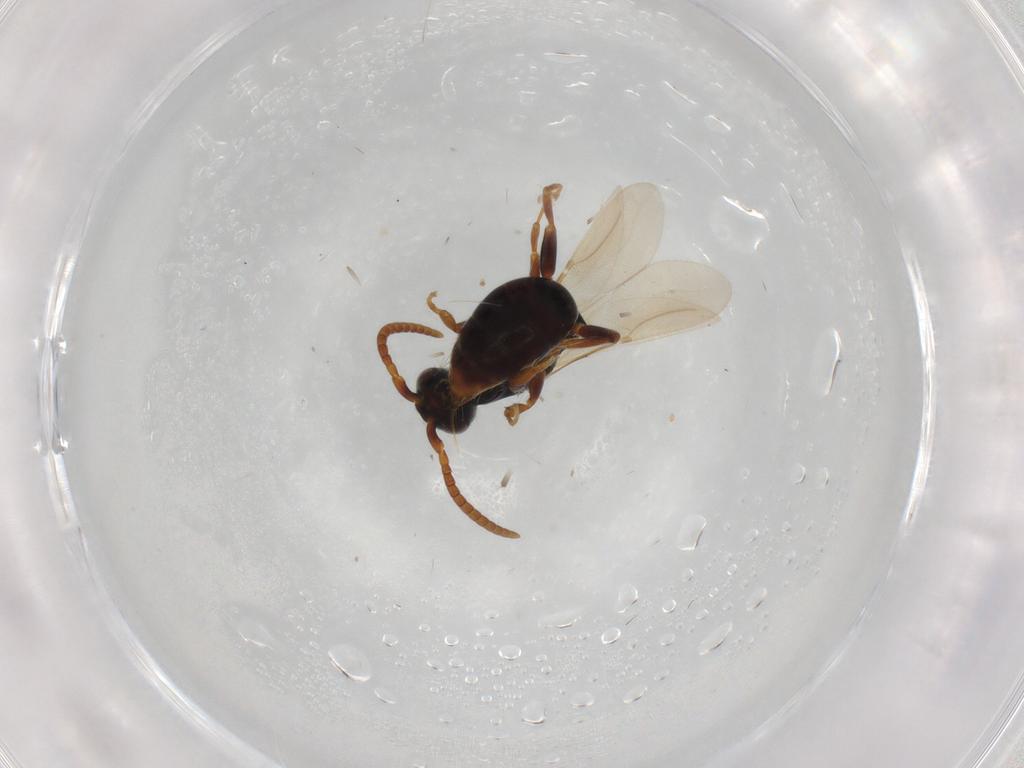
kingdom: Animalia
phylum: Arthropoda
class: Insecta
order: Hymenoptera
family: Bethylidae
